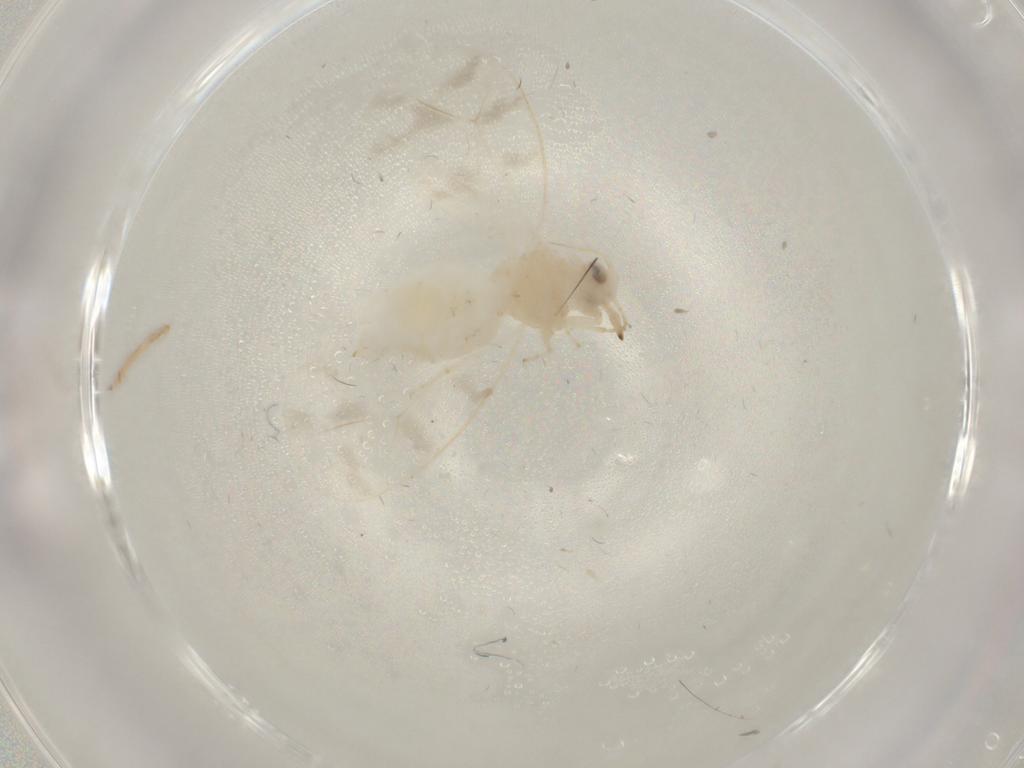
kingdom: Animalia
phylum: Arthropoda
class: Insecta
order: Hemiptera
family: Aleyrodidae
